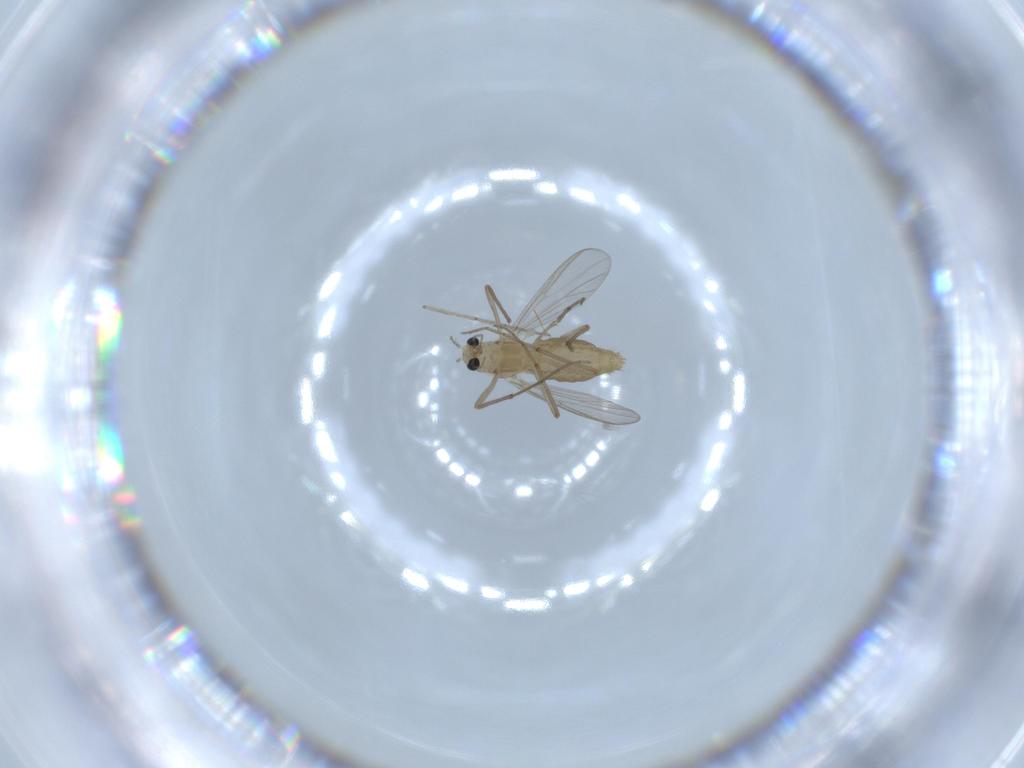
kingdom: Animalia
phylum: Arthropoda
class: Insecta
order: Diptera
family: Chironomidae
